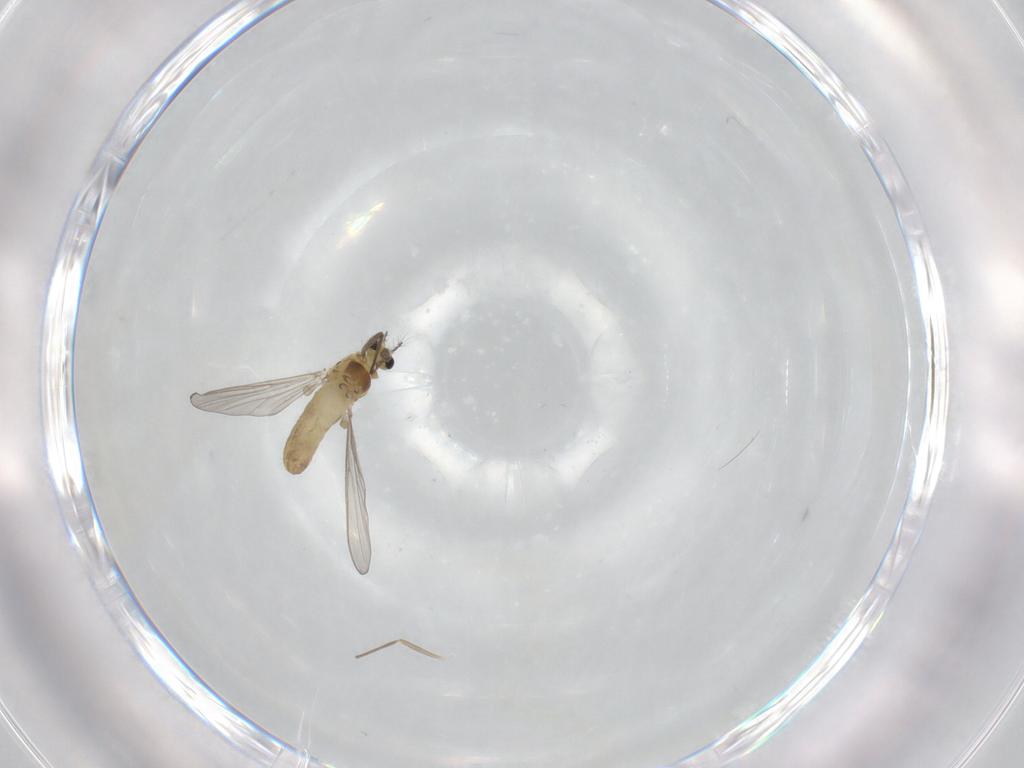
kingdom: Animalia
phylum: Arthropoda
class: Insecta
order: Diptera
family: Chironomidae
